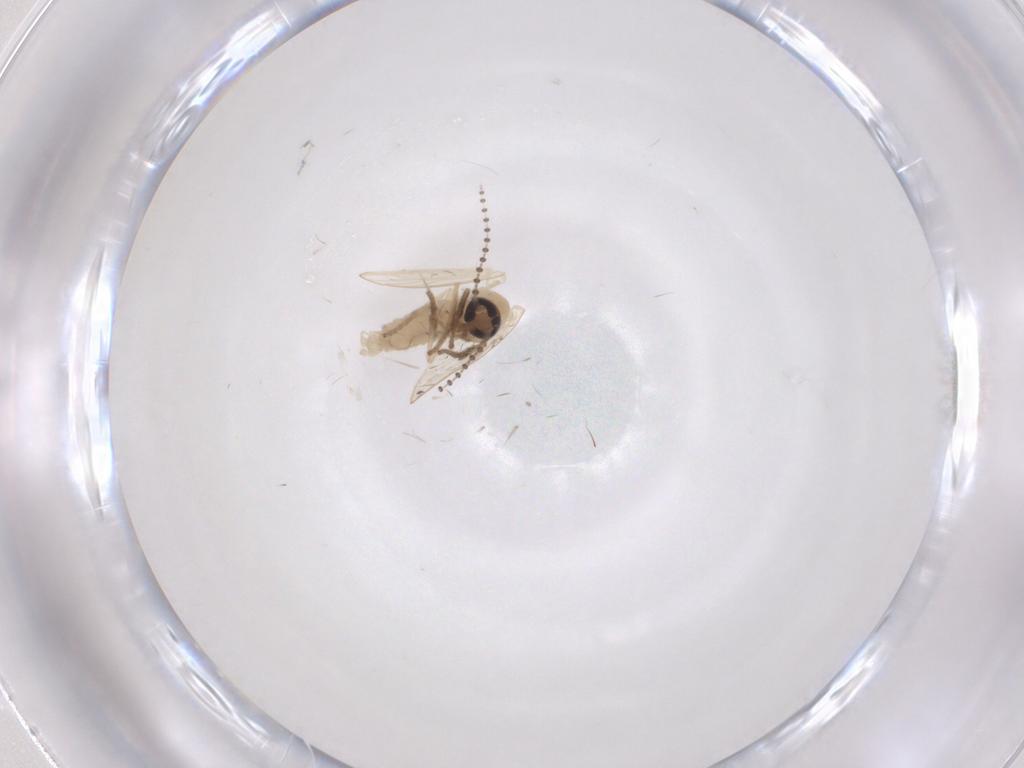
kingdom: Animalia
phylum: Arthropoda
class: Insecta
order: Diptera
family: Psychodidae
